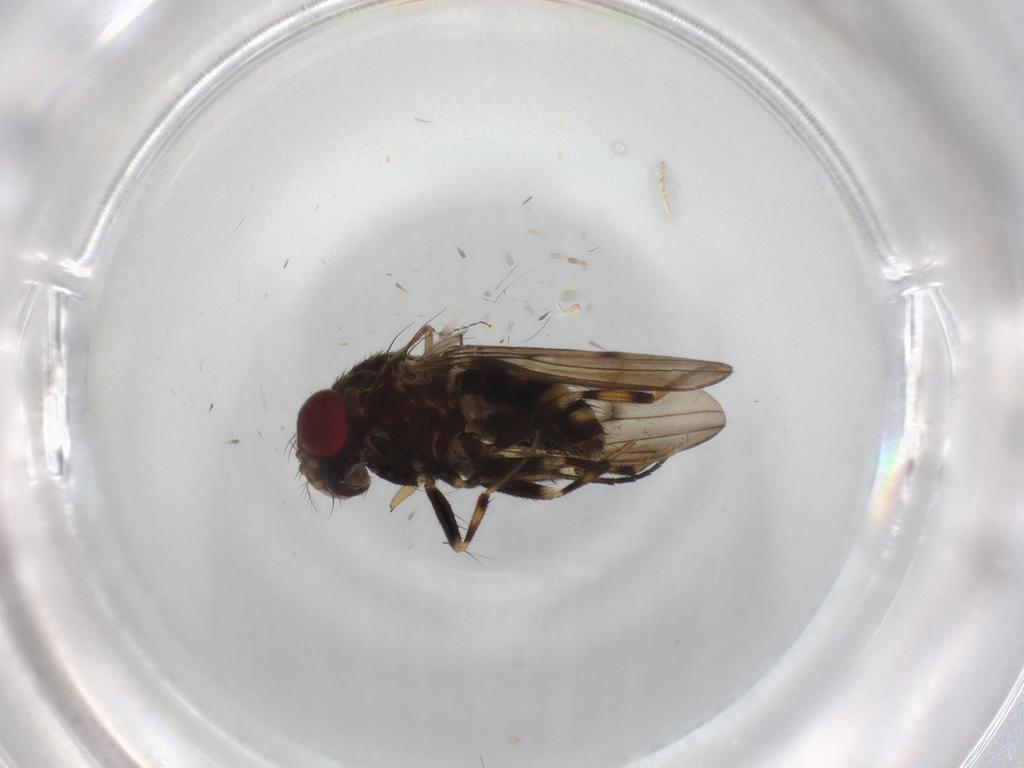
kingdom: Animalia
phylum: Arthropoda
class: Insecta
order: Diptera
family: Drosophilidae
